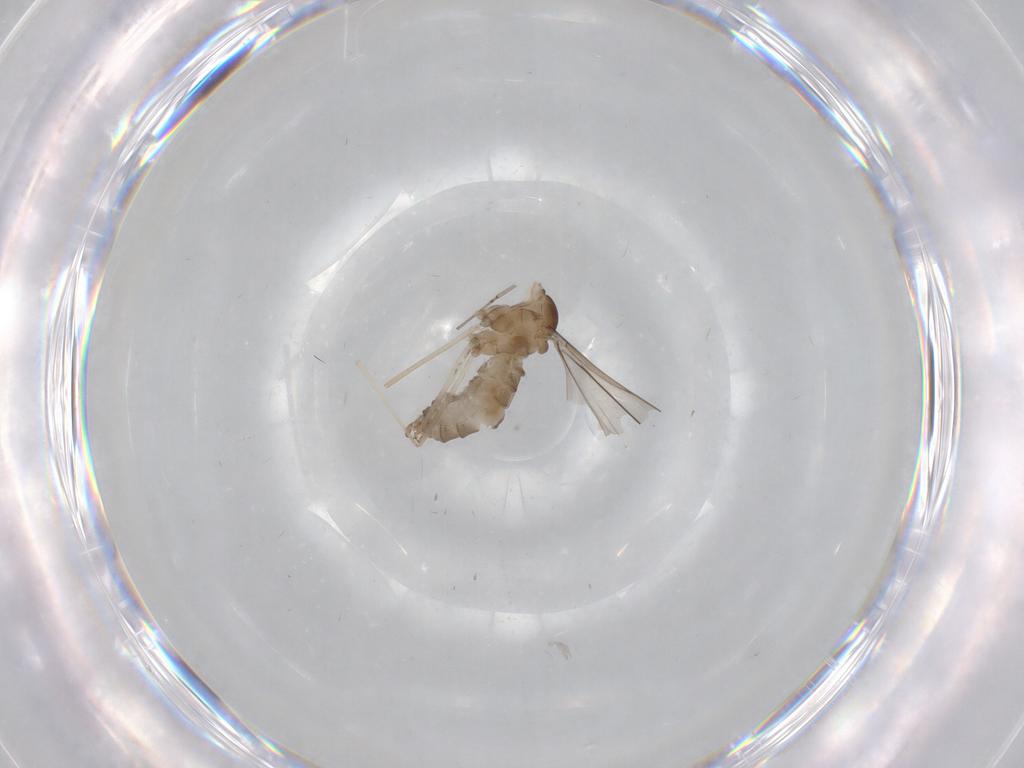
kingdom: Animalia
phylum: Arthropoda
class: Insecta
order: Diptera
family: Cecidomyiidae
